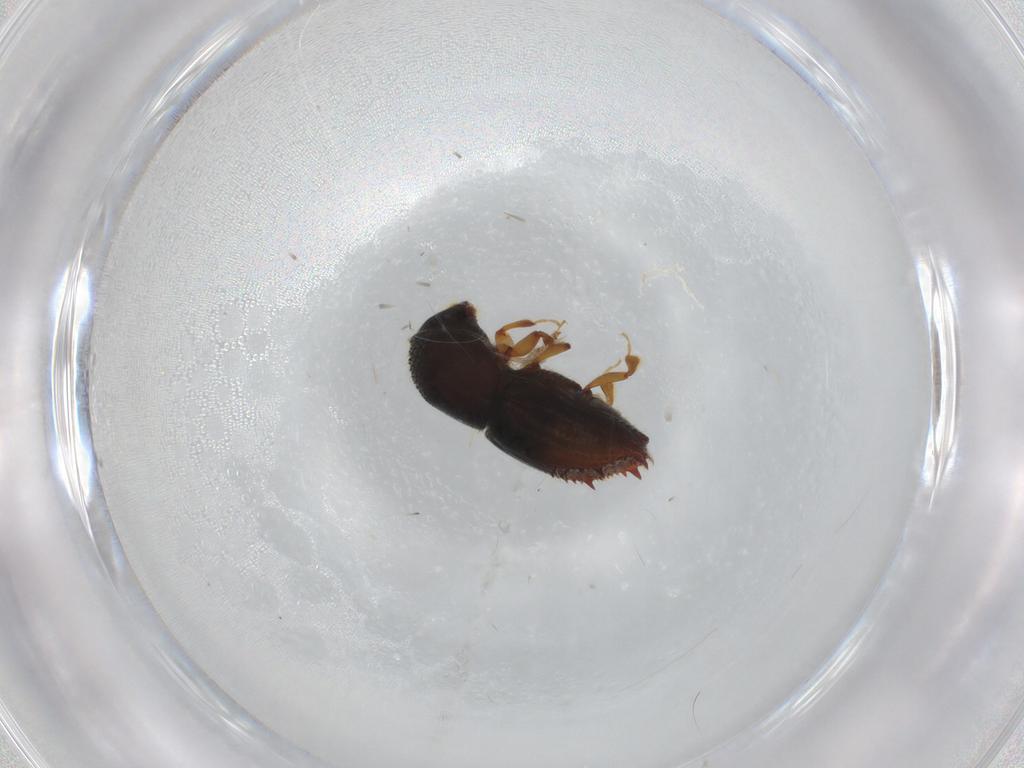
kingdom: Animalia
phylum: Arthropoda
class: Insecta
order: Coleoptera
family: Curculionidae
